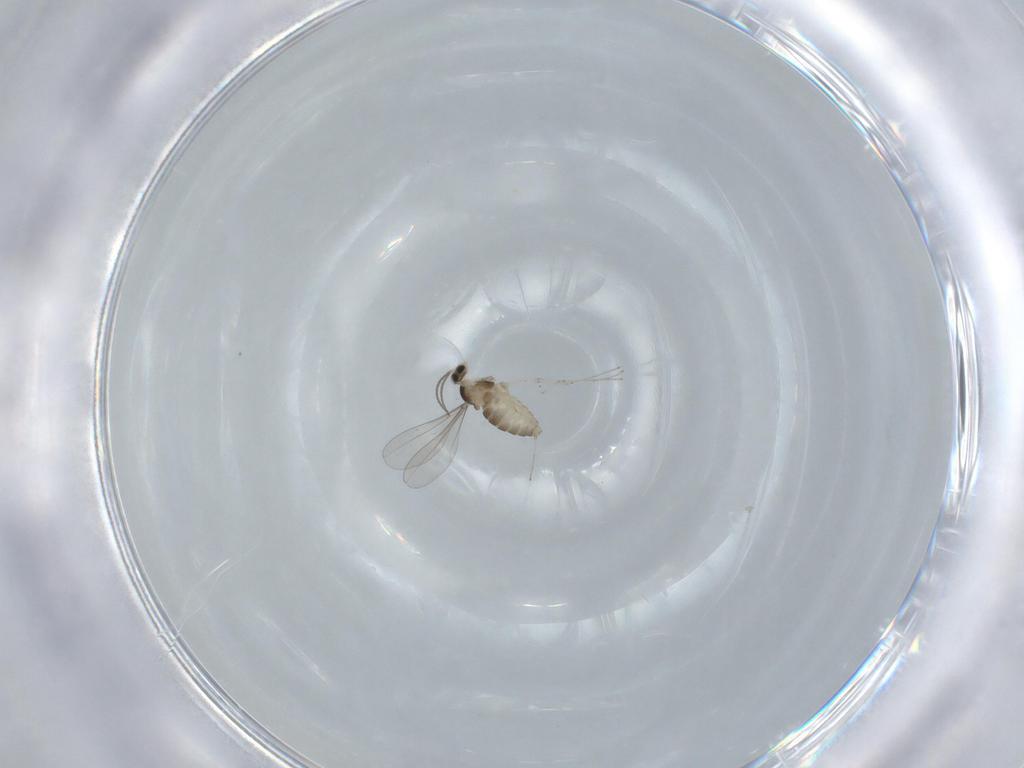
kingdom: Animalia
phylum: Arthropoda
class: Insecta
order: Diptera
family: Cecidomyiidae
